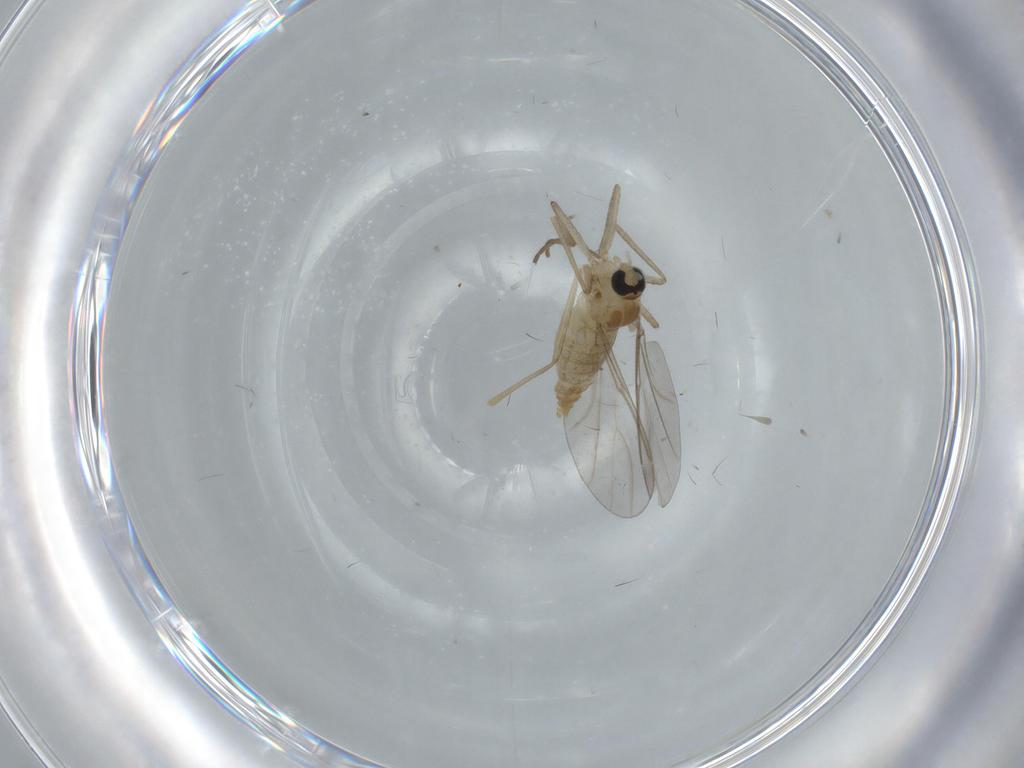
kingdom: Animalia
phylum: Arthropoda
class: Insecta
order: Diptera
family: Cecidomyiidae
